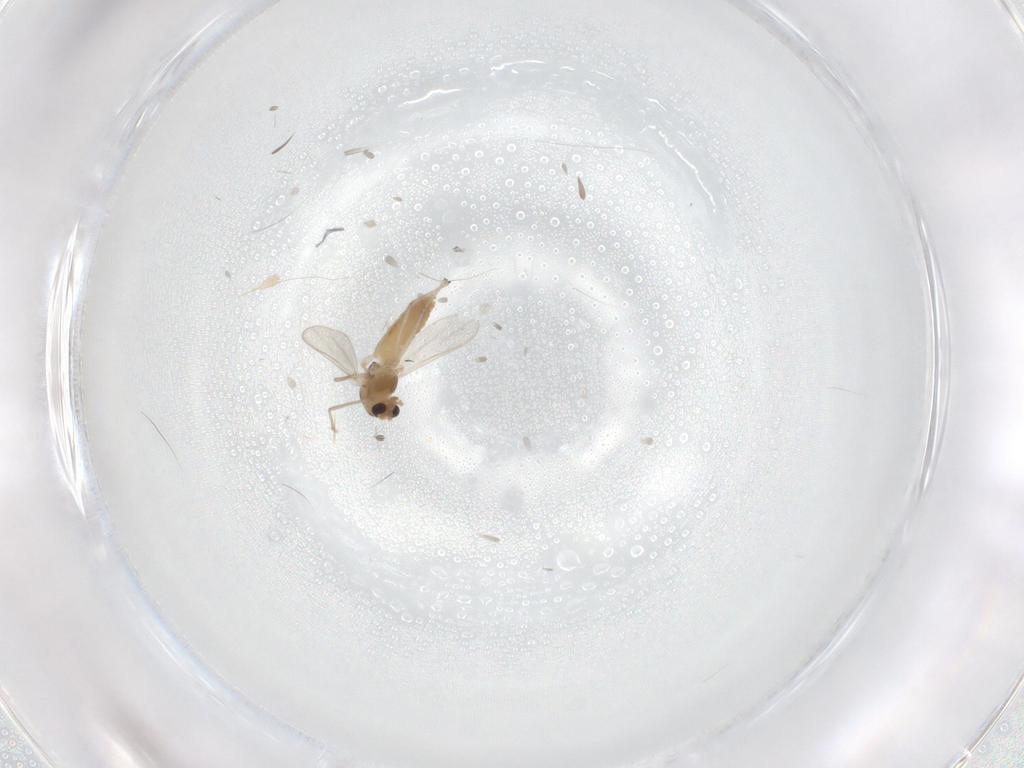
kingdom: Animalia
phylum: Arthropoda
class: Insecta
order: Diptera
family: Chironomidae
